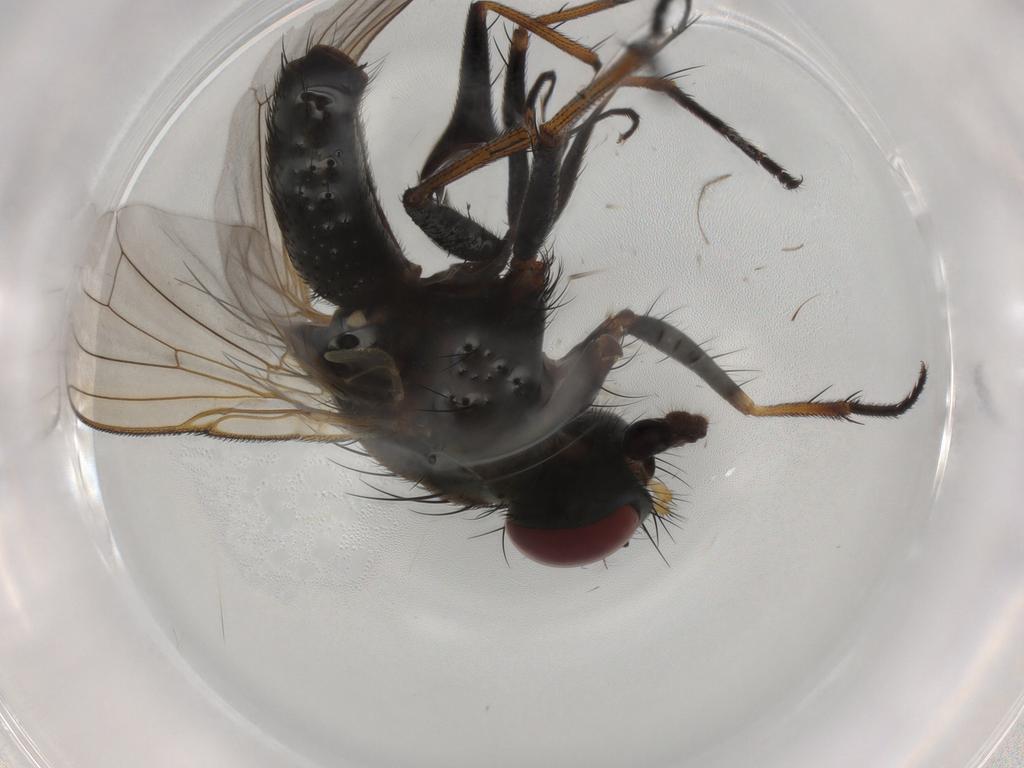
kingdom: Animalia
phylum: Arthropoda
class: Insecta
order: Diptera
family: Muscidae
